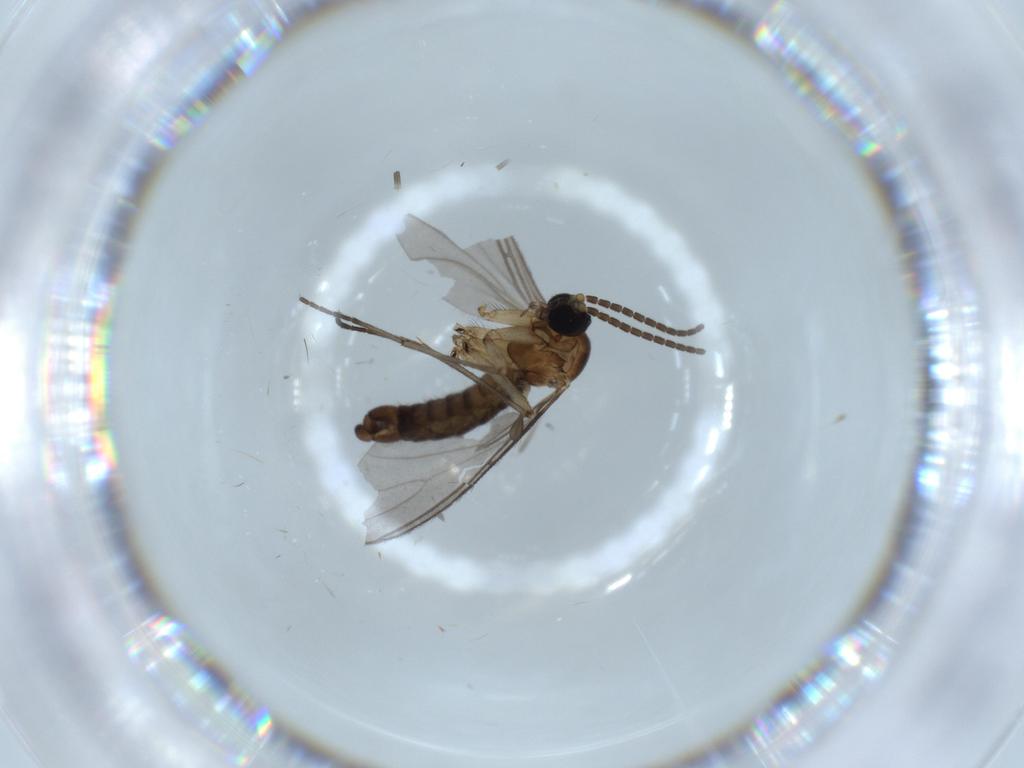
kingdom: Animalia
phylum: Arthropoda
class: Insecta
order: Diptera
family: Sciaridae
